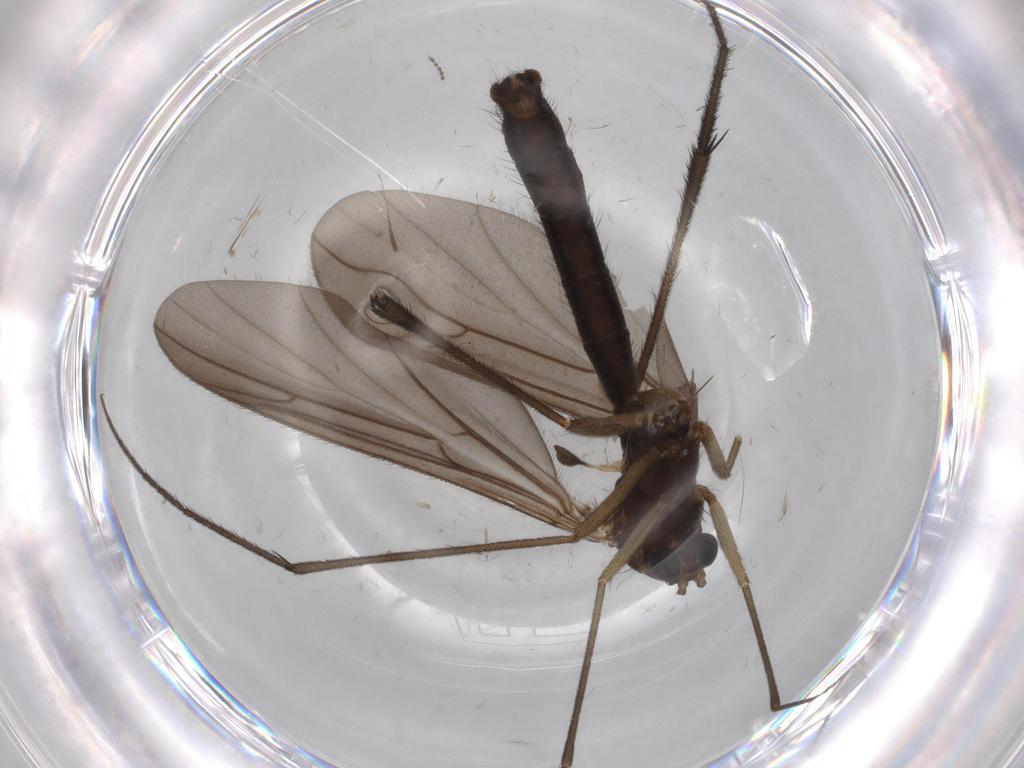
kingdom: Animalia
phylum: Arthropoda
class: Insecta
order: Diptera
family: Ditomyiidae
